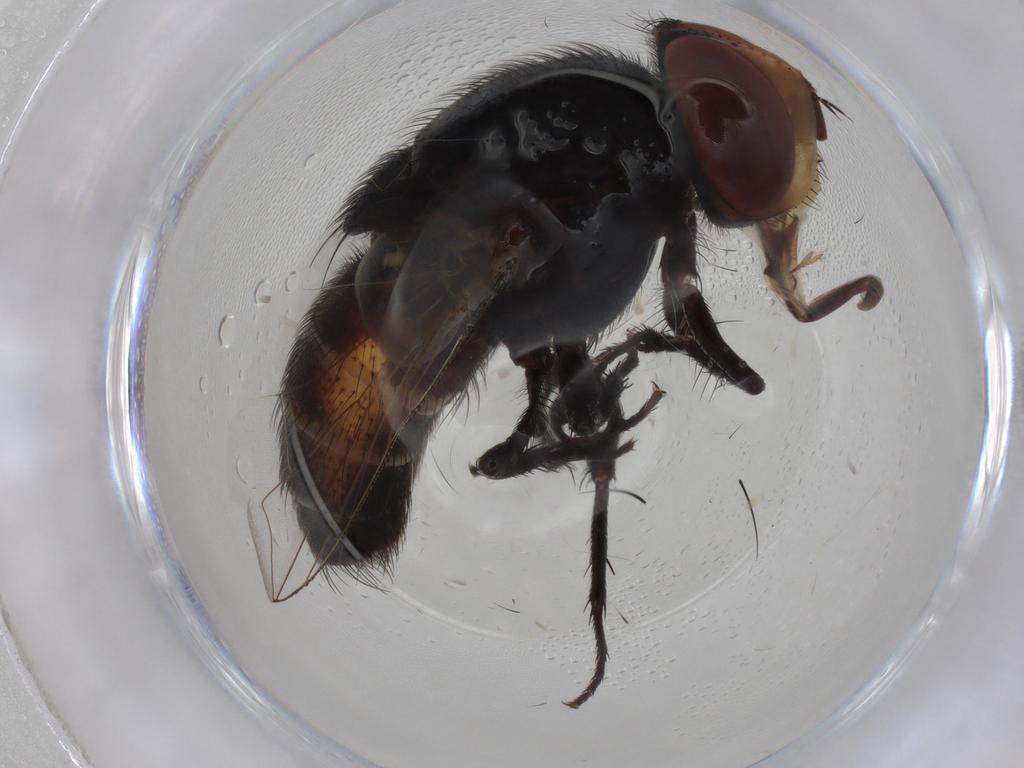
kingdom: Animalia
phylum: Arthropoda
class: Insecta
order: Diptera
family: Cecidomyiidae
